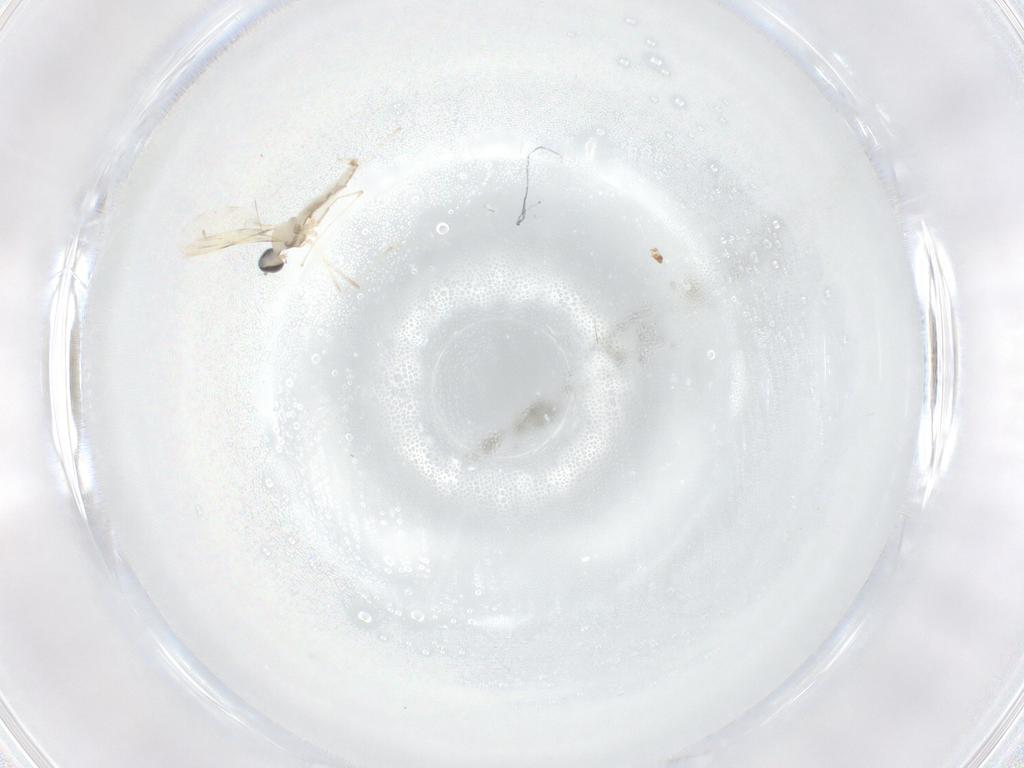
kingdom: Animalia
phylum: Arthropoda
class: Insecta
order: Diptera
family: Cecidomyiidae
